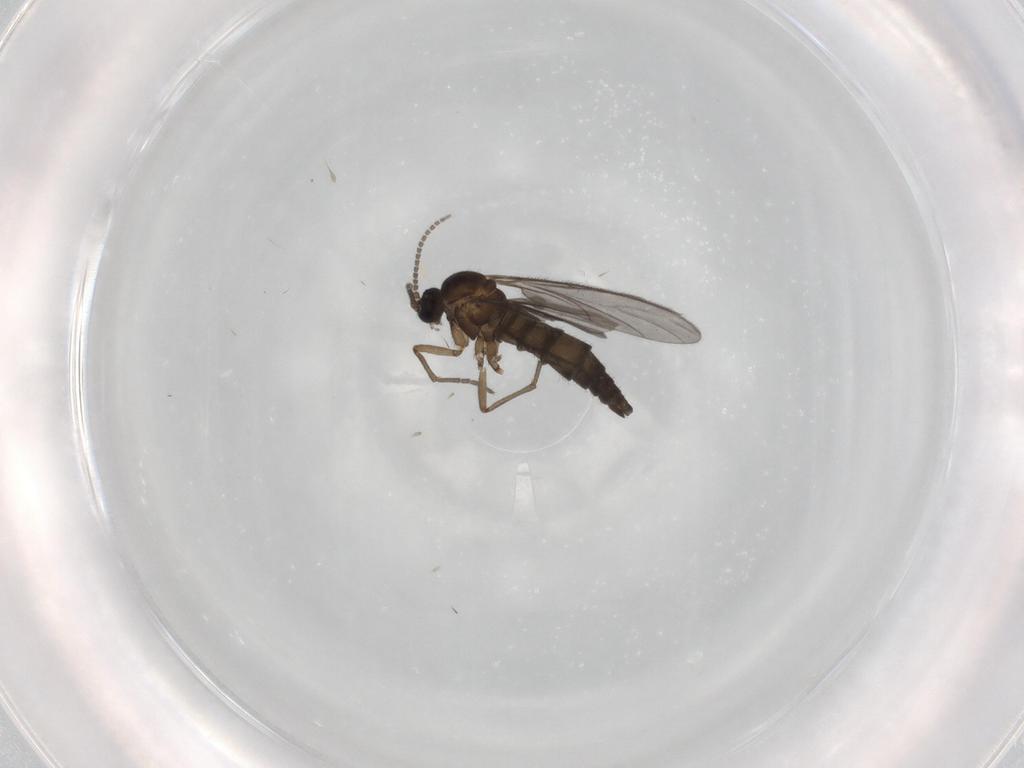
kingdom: Animalia
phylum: Arthropoda
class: Insecta
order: Diptera
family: Sciaridae
